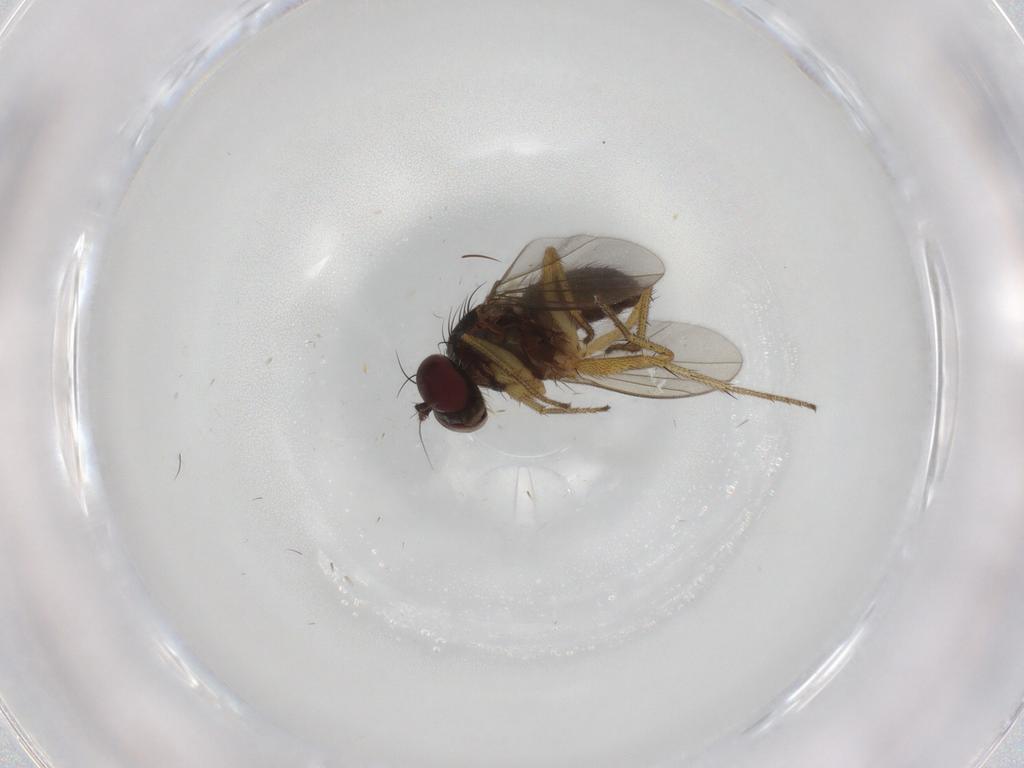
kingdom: Animalia
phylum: Arthropoda
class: Insecta
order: Diptera
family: Dolichopodidae
